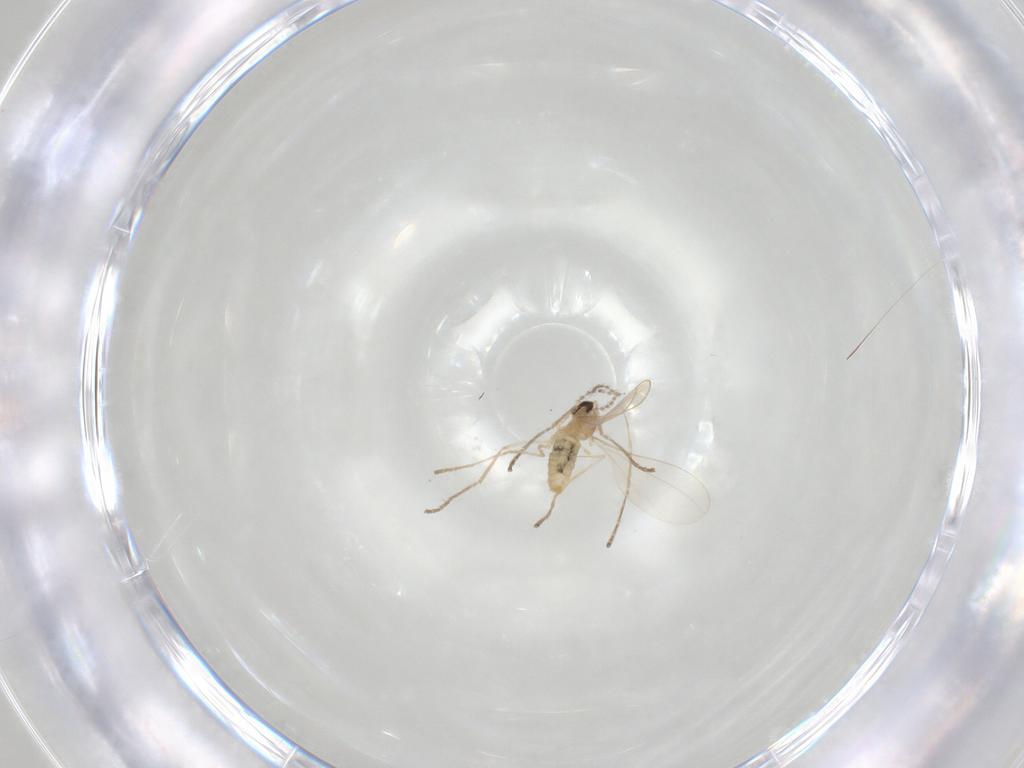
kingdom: Animalia
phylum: Arthropoda
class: Insecta
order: Diptera
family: Cecidomyiidae
